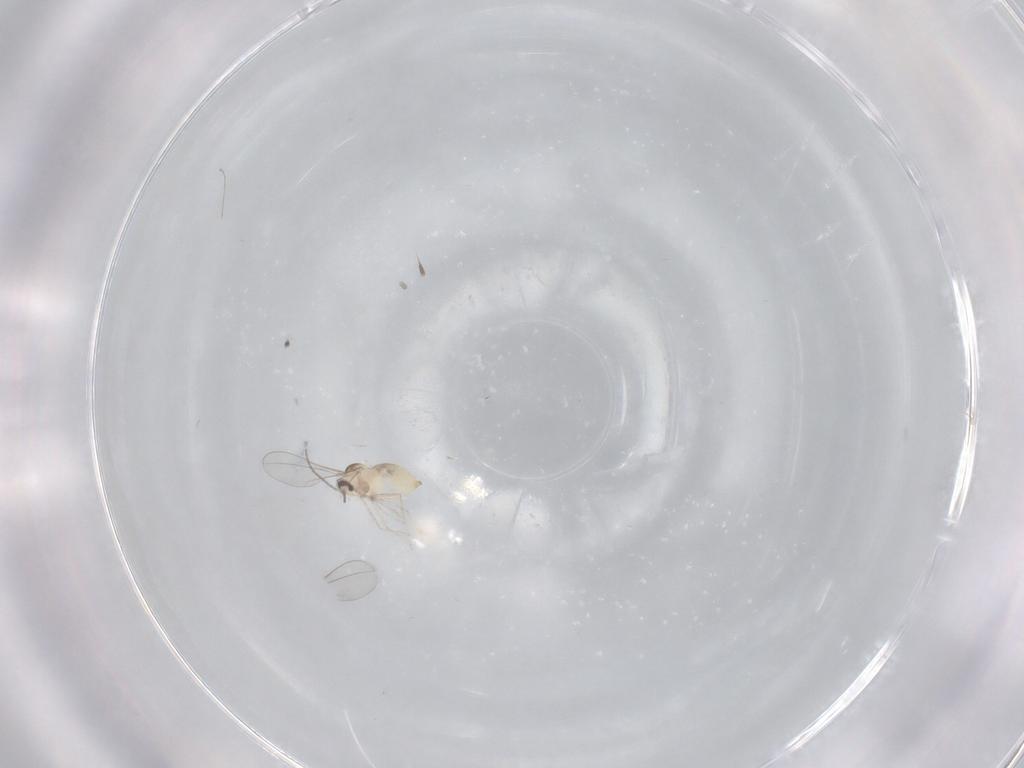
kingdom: Animalia
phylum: Arthropoda
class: Insecta
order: Diptera
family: Cecidomyiidae
